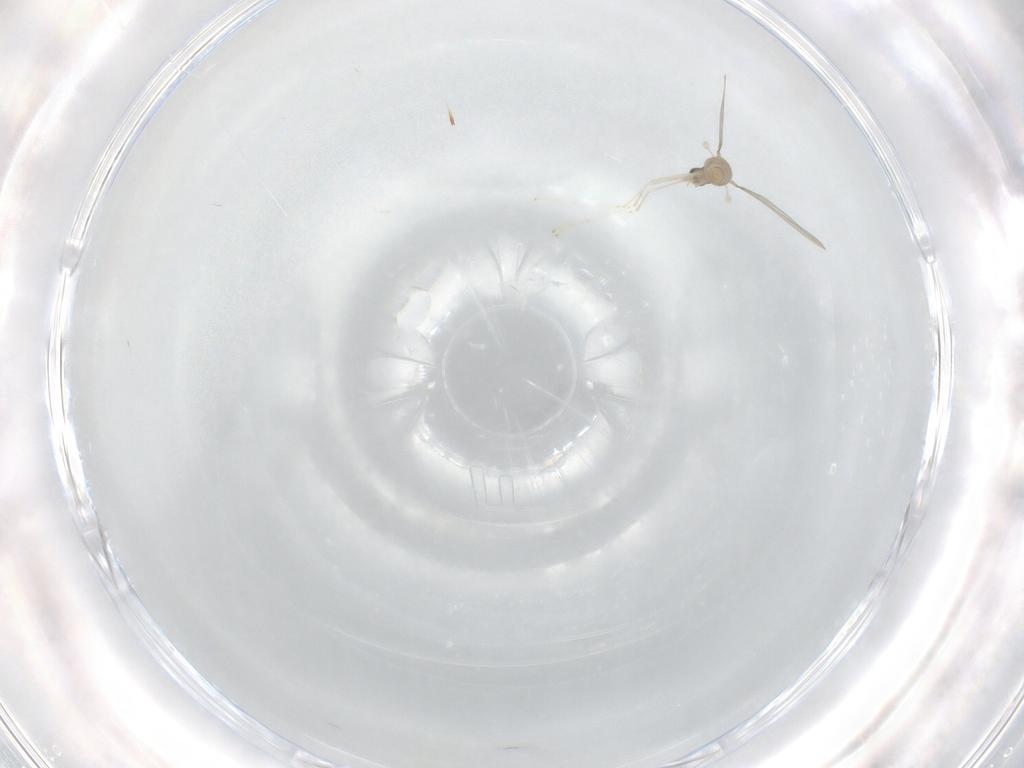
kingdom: Animalia
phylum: Arthropoda
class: Insecta
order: Diptera
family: Cecidomyiidae
